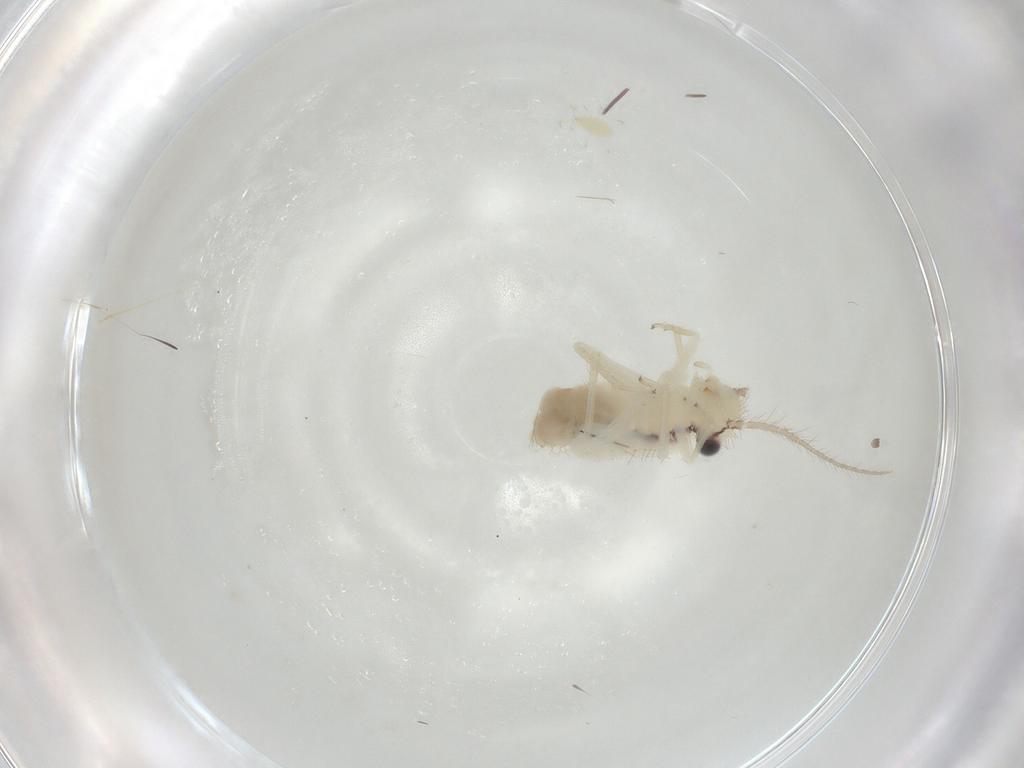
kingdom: Animalia
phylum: Arthropoda
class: Insecta
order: Psocodea
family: Philotarsidae
